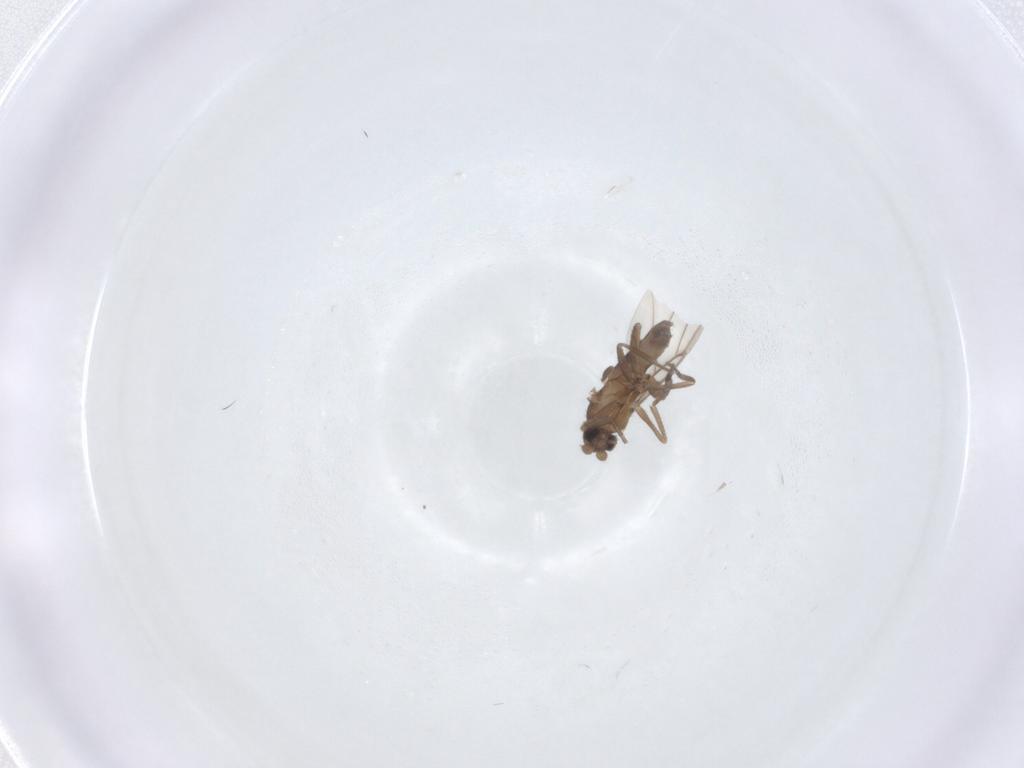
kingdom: Animalia
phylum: Arthropoda
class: Insecta
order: Diptera
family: Phoridae
